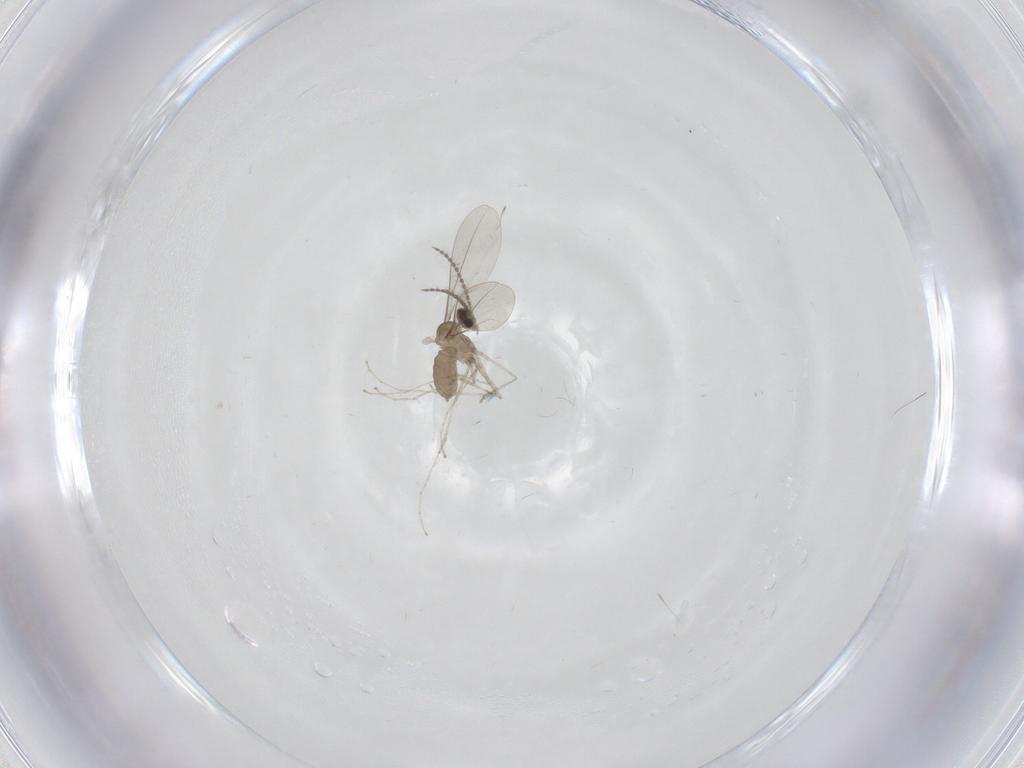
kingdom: Animalia
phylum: Arthropoda
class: Insecta
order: Diptera
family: Limoniidae
